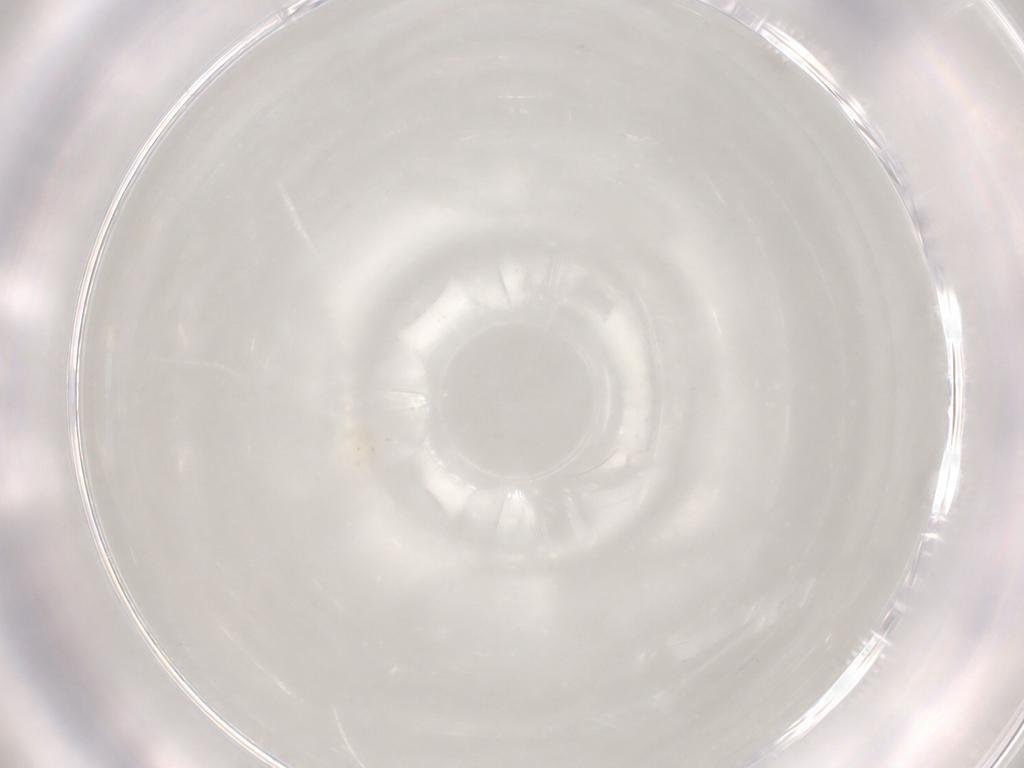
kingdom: Animalia
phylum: Arthropoda
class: Arachnida
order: Trombidiformes
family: Anystidae
